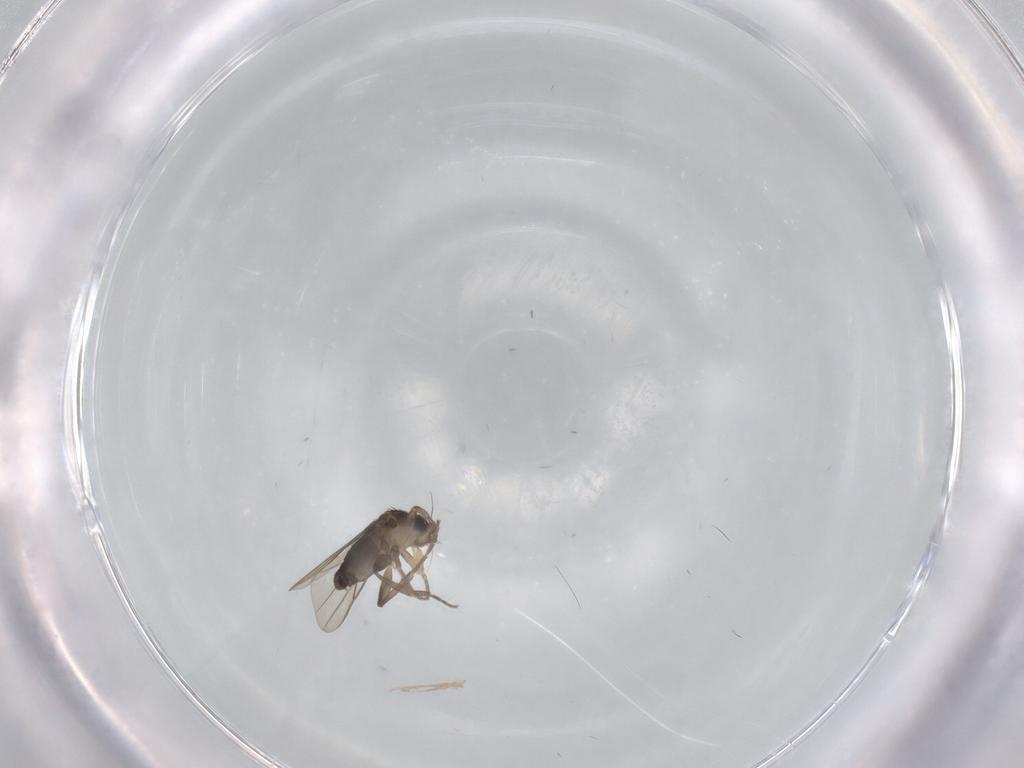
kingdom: Animalia
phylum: Arthropoda
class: Insecta
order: Diptera
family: Phoridae
